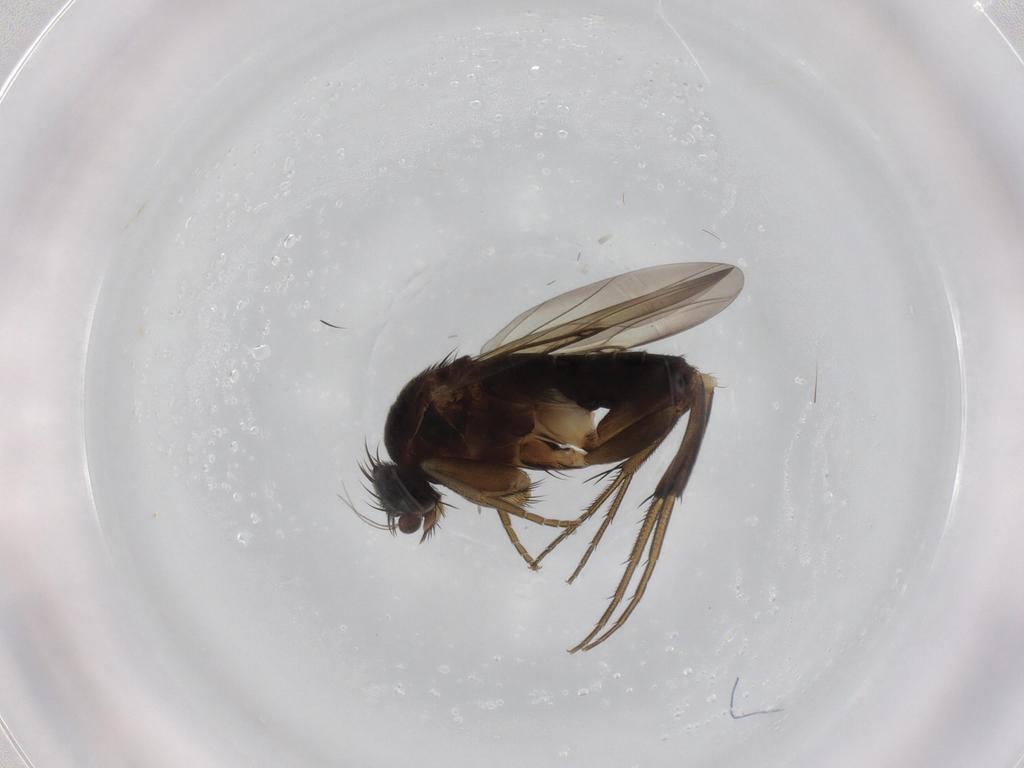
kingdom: Animalia
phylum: Arthropoda
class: Insecta
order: Diptera
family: Phoridae
